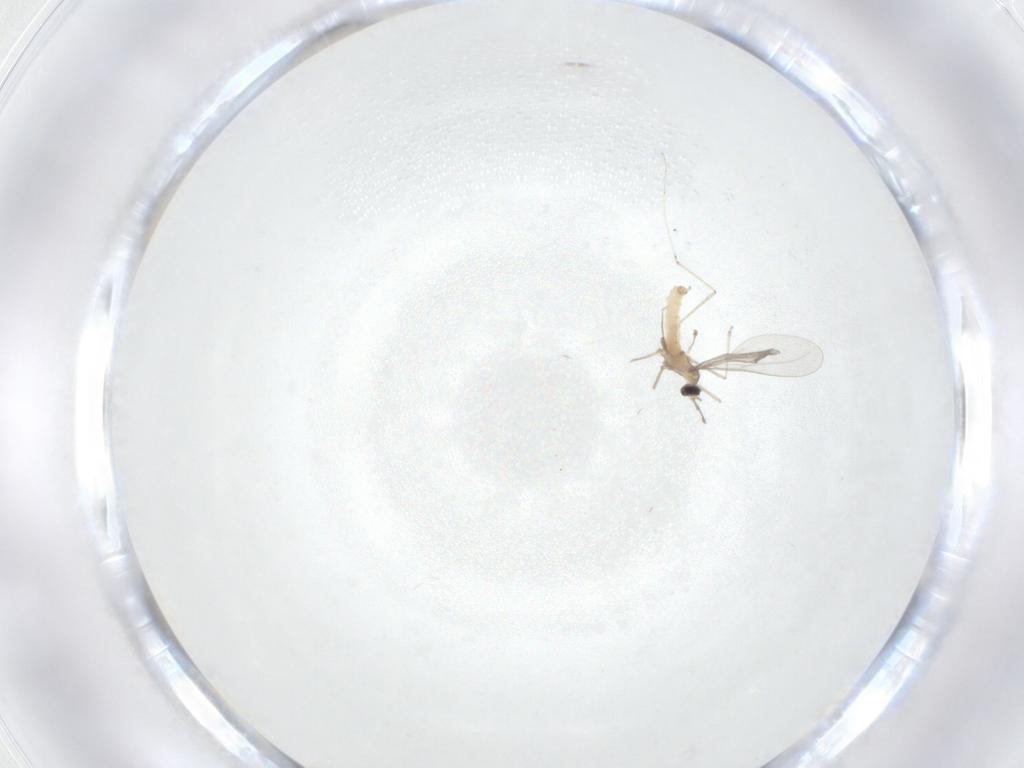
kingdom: Animalia
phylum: Arthropoda
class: Insecta
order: Diptera
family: Cecidomyiidae
